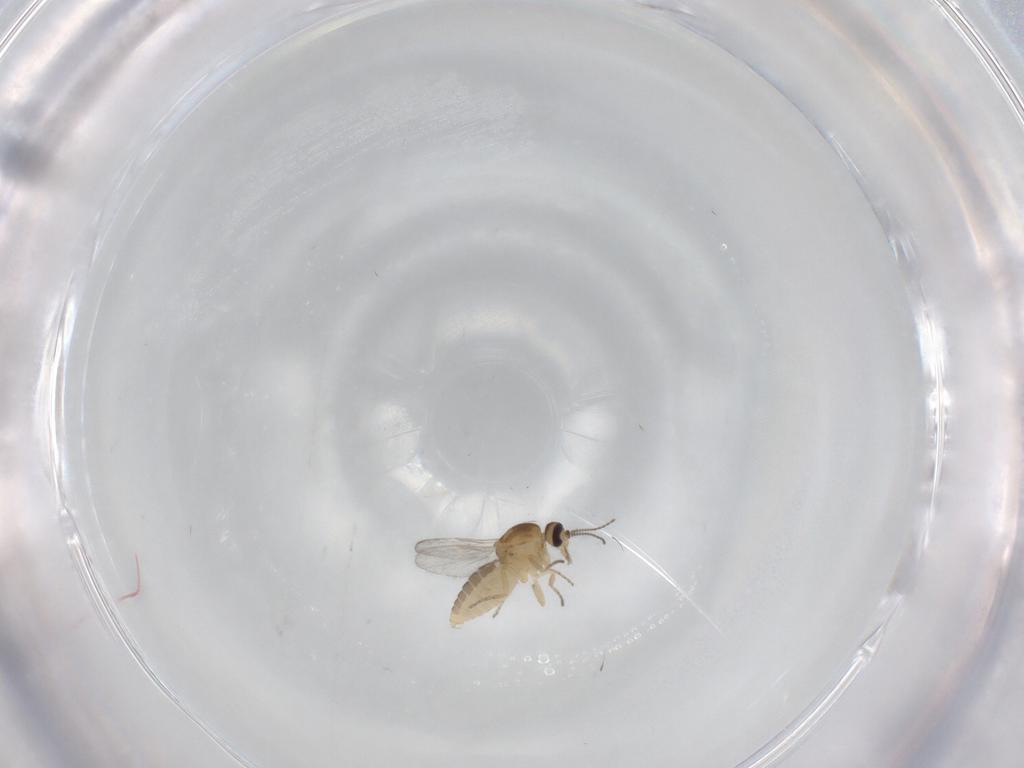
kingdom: Animalia
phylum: Arthropoda
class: Insecta
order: Diptera
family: Ceratopogonidae
